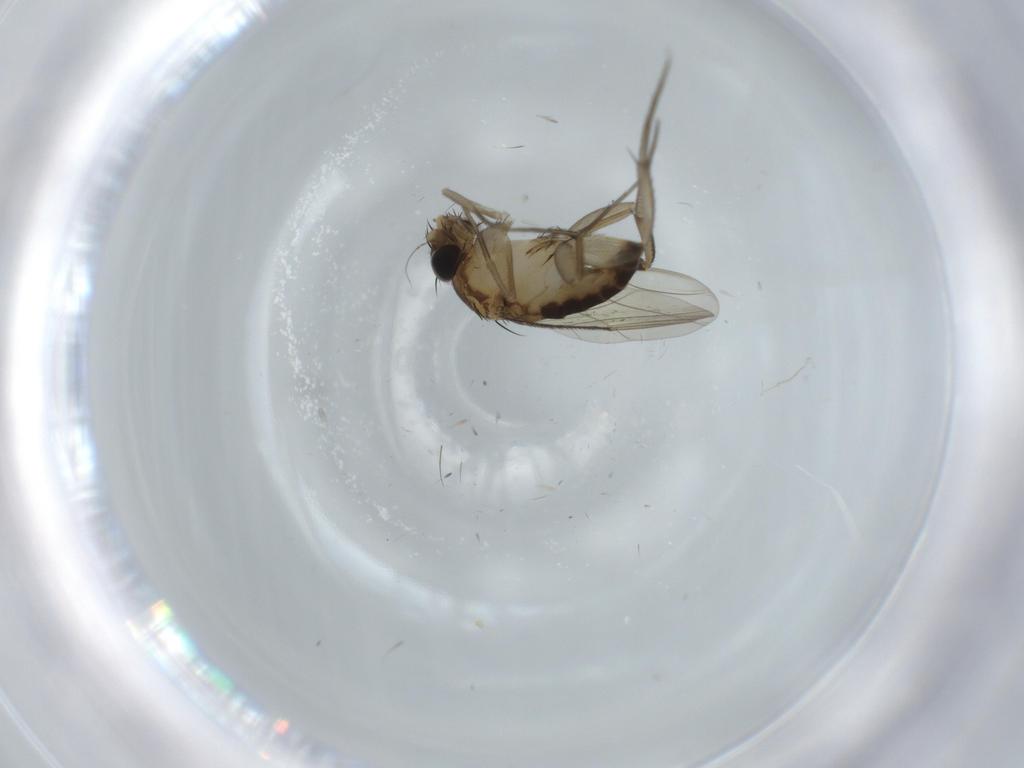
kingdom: Animalia
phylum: Arthropoda
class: Insecta
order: Diptera
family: Phoridae
